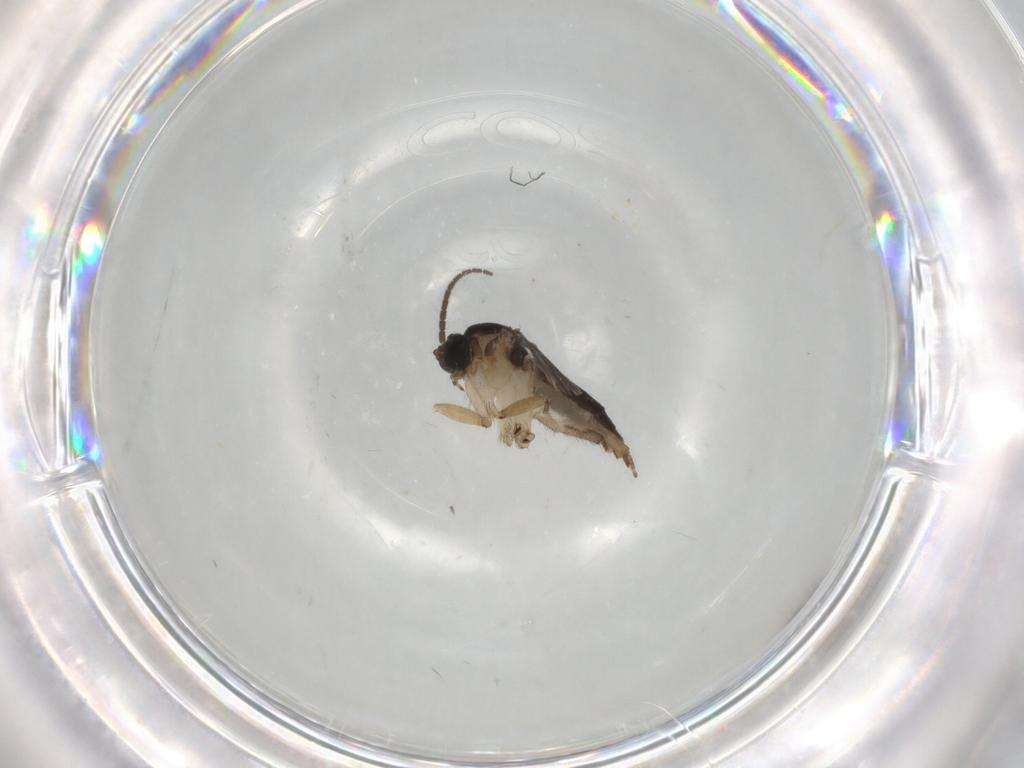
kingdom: Animalia
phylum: Arthropoda
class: Insecta
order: Diptera
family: Sciaridae
